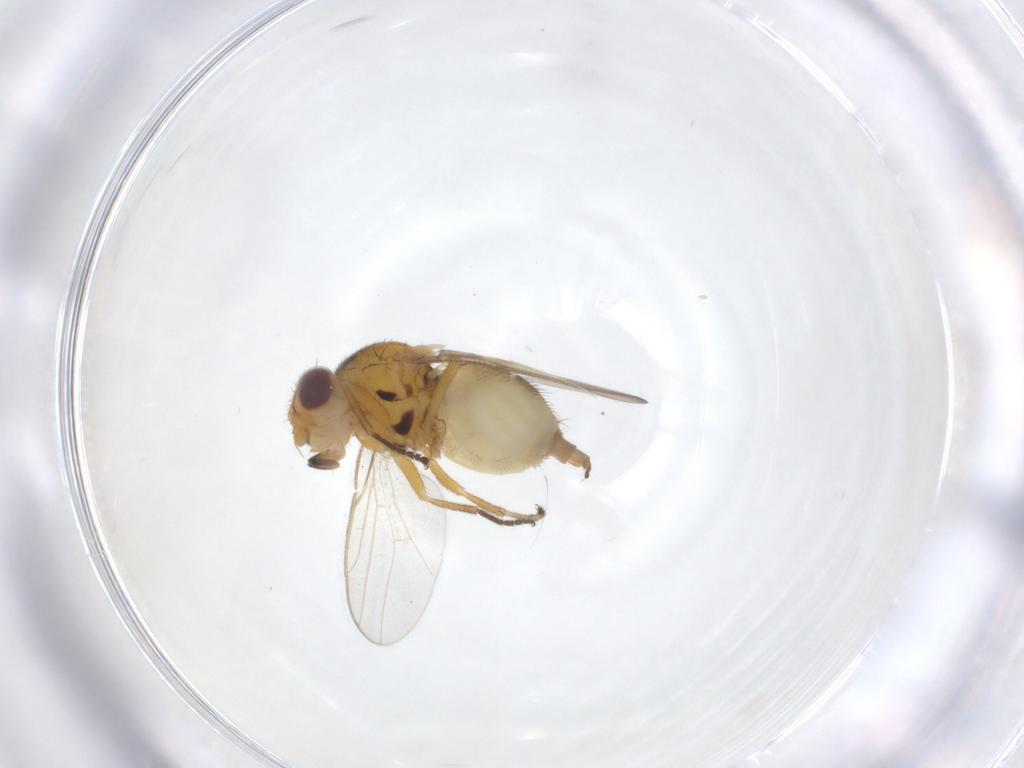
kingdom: Animalia
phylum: Arthropoda
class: Insecta
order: Diptera
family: Chloropidae
